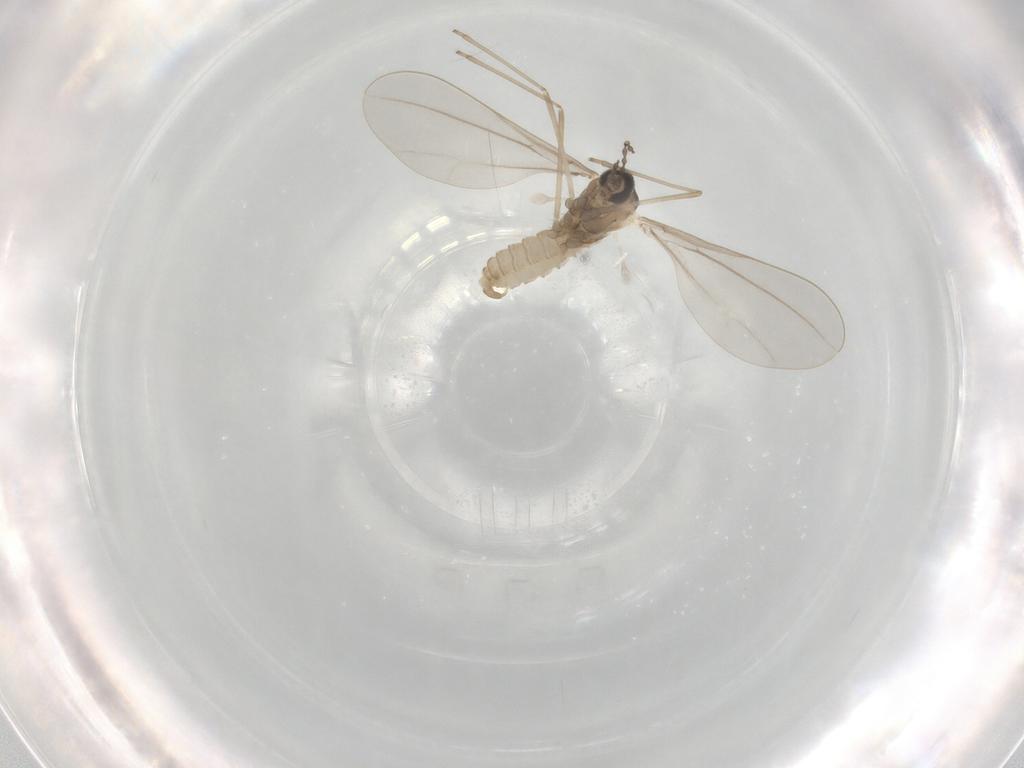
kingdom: Animalia
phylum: Arthropoda
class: Insecta
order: Diptera
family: Cecidomyiidae
